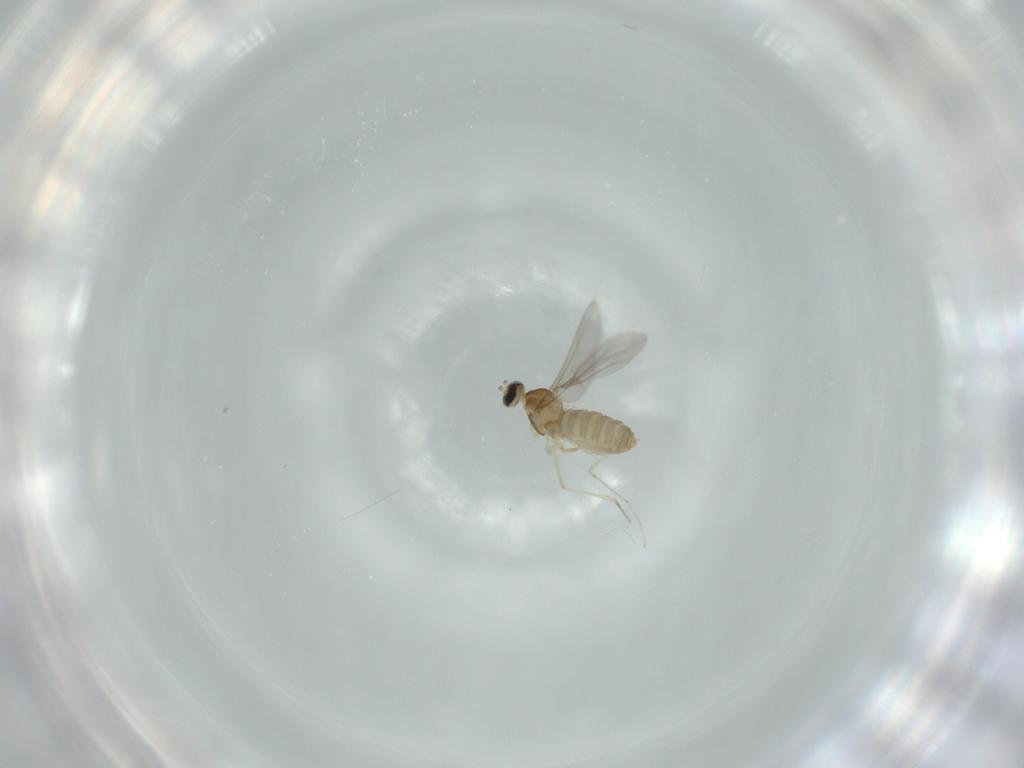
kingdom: Animalia
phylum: Arthropoda
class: Insecta
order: Diptera
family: Cecidomyiidae
